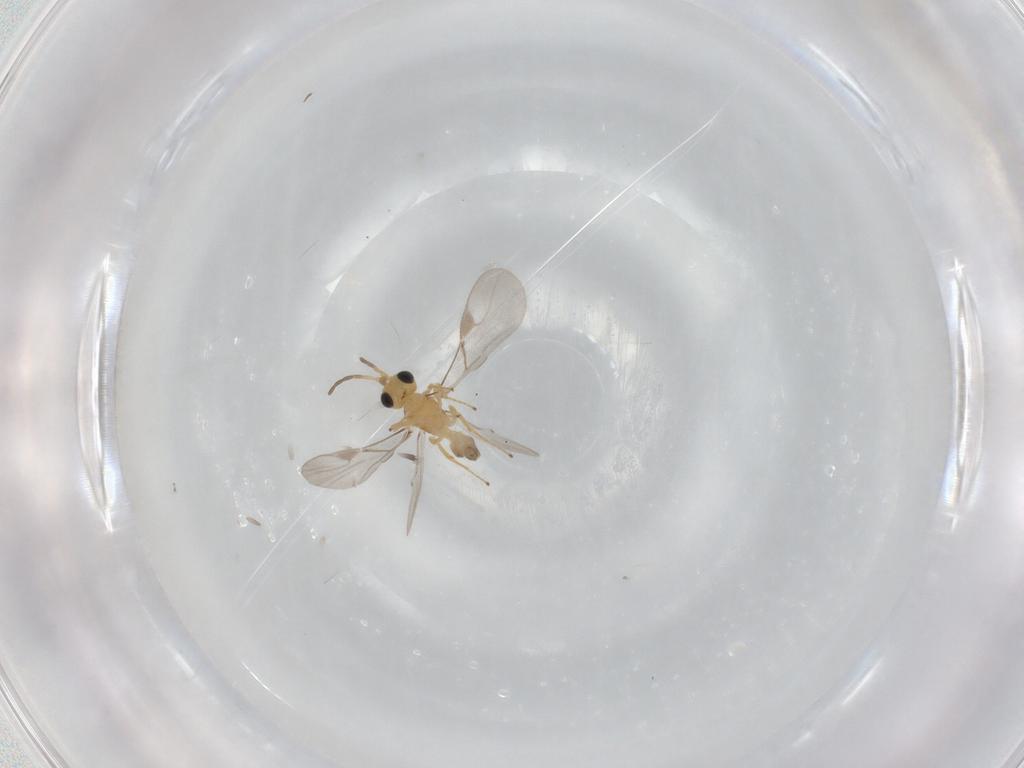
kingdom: Animalia
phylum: Arthropoda
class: Insecta
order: Hymenoptera
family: Braconidae
